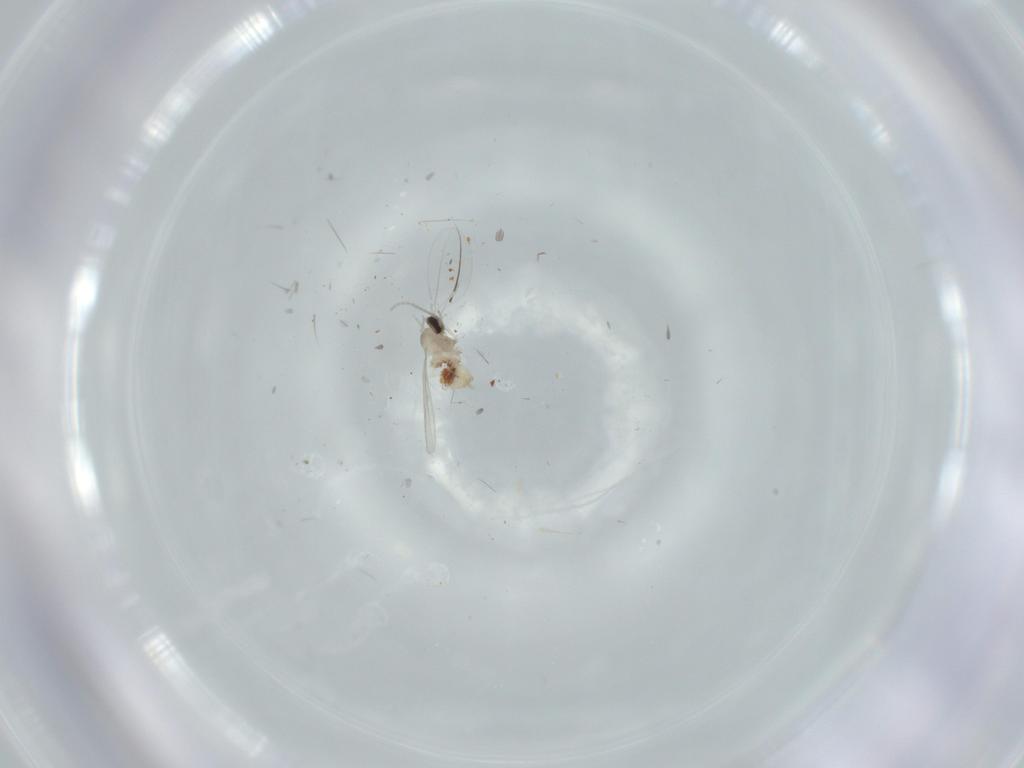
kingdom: Animalia
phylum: Arthropoda
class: Insecta
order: Diptera
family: Cecidomyiidae
